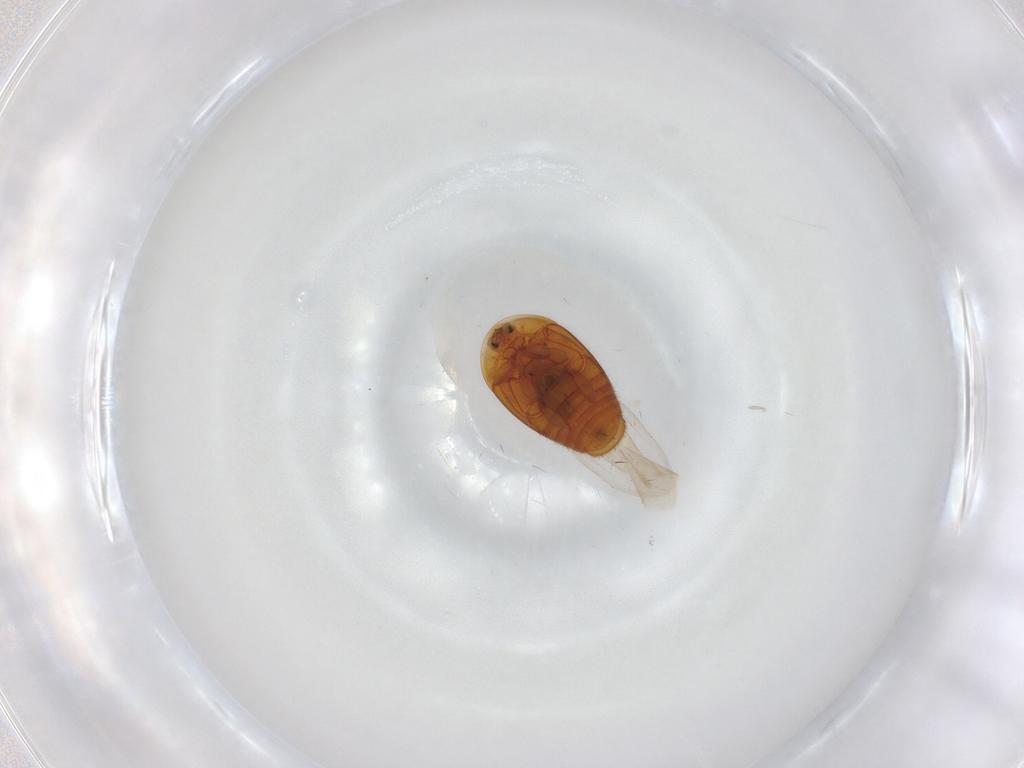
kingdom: Animalia
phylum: Arthropoda
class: Insecta
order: Coleoptera
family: Corylophidae
